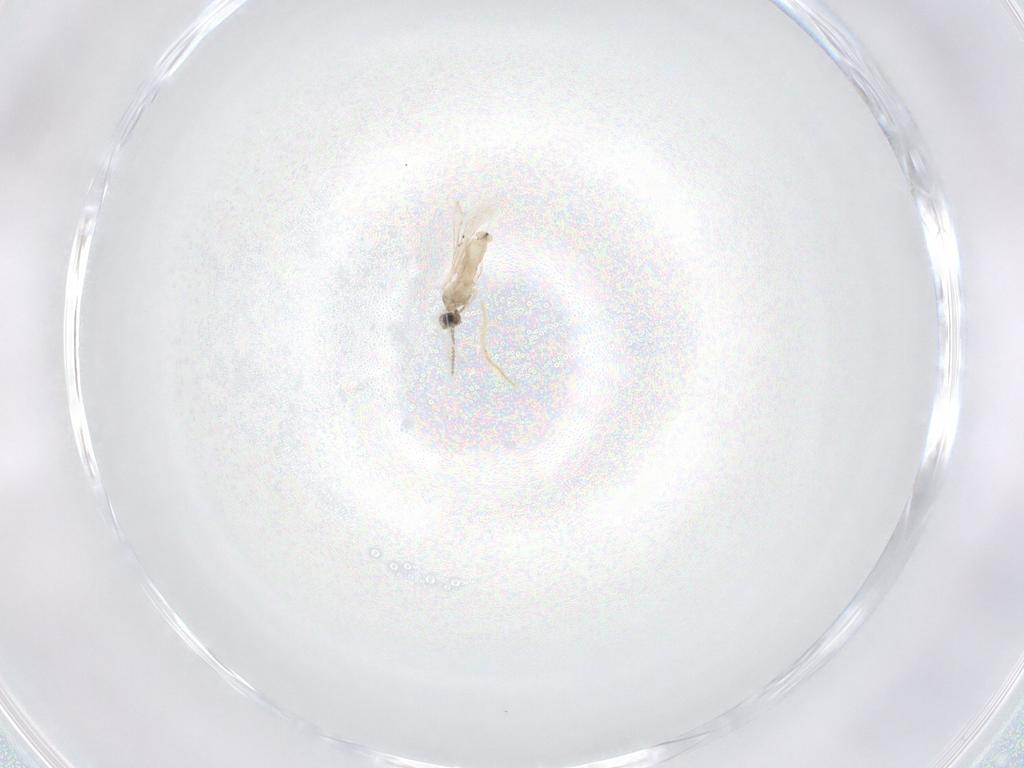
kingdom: Animalia
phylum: Arthropoda
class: Insecta
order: Diptera
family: Cecidomyiidae
